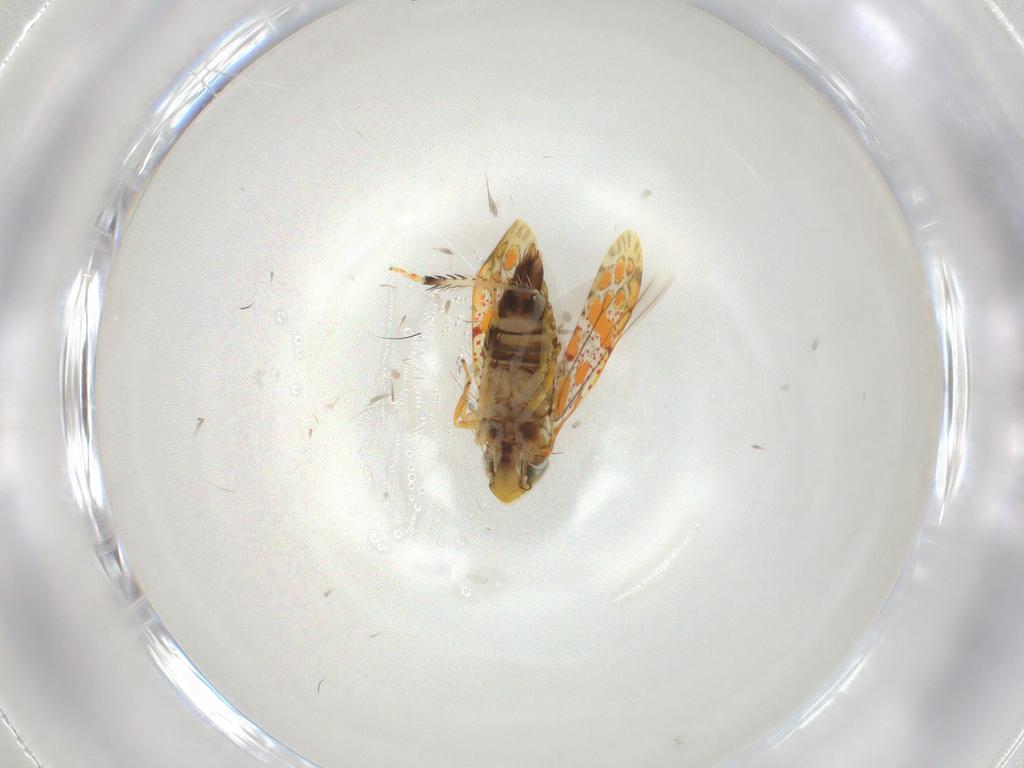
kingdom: Animalia
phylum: Arthropoda
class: Insecta
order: Hemiptera
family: Cicadellidae
